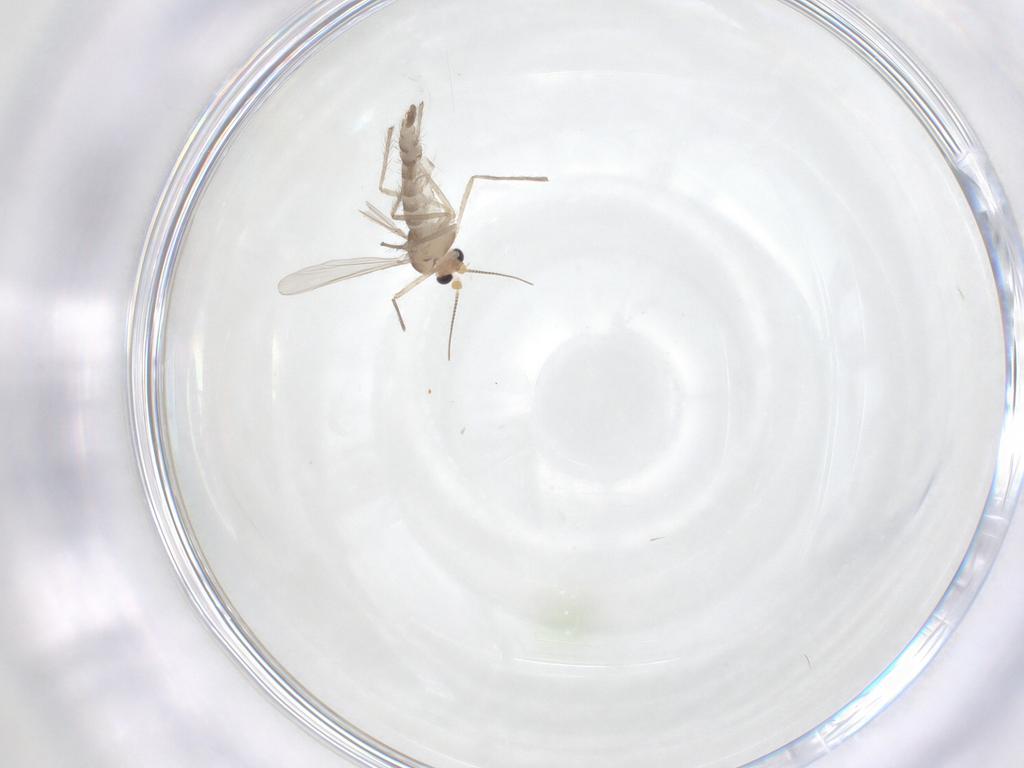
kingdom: Animalia
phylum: Arthropoda
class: Insecta
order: Diptera
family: Chironomidae
